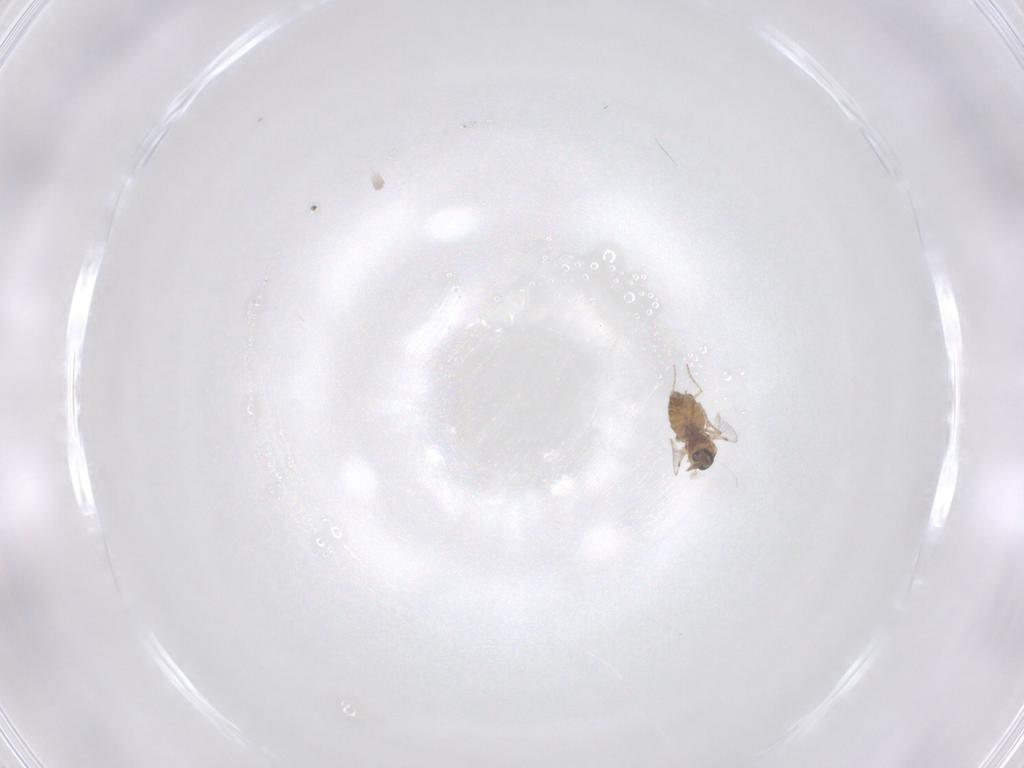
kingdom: Animalia
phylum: Arthropoda
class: Insecta
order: Diptera
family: Ceratopogonidae
